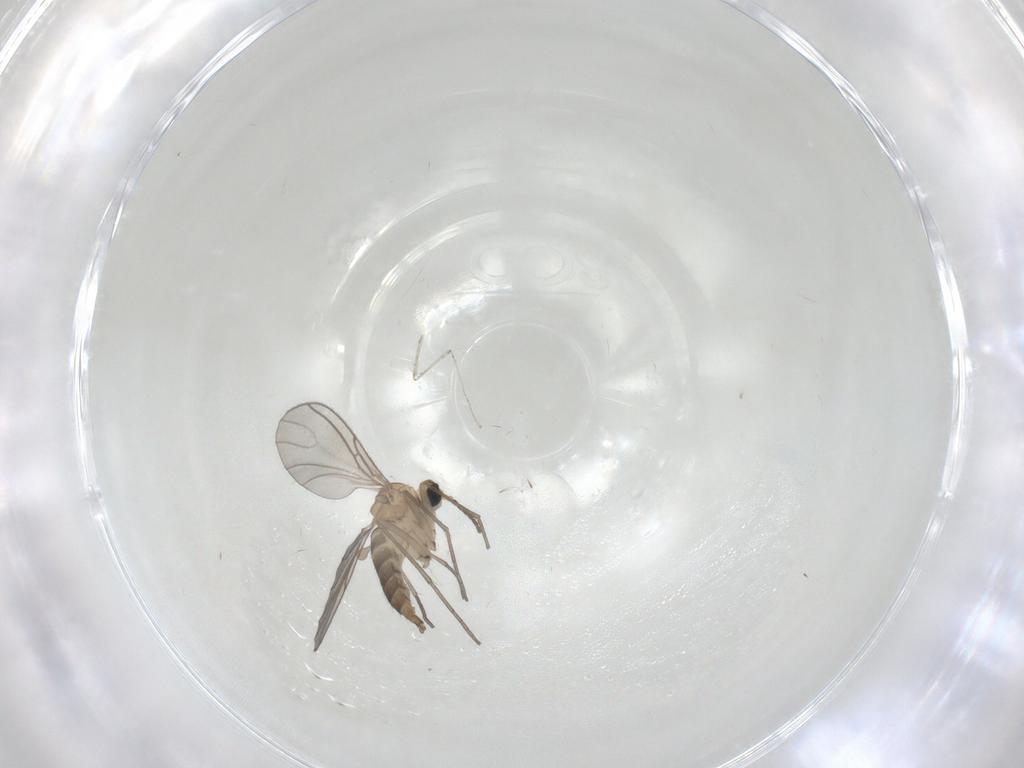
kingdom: Animalia
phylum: Arthropoda
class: Insecta
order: Diptera
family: Sciaridae
